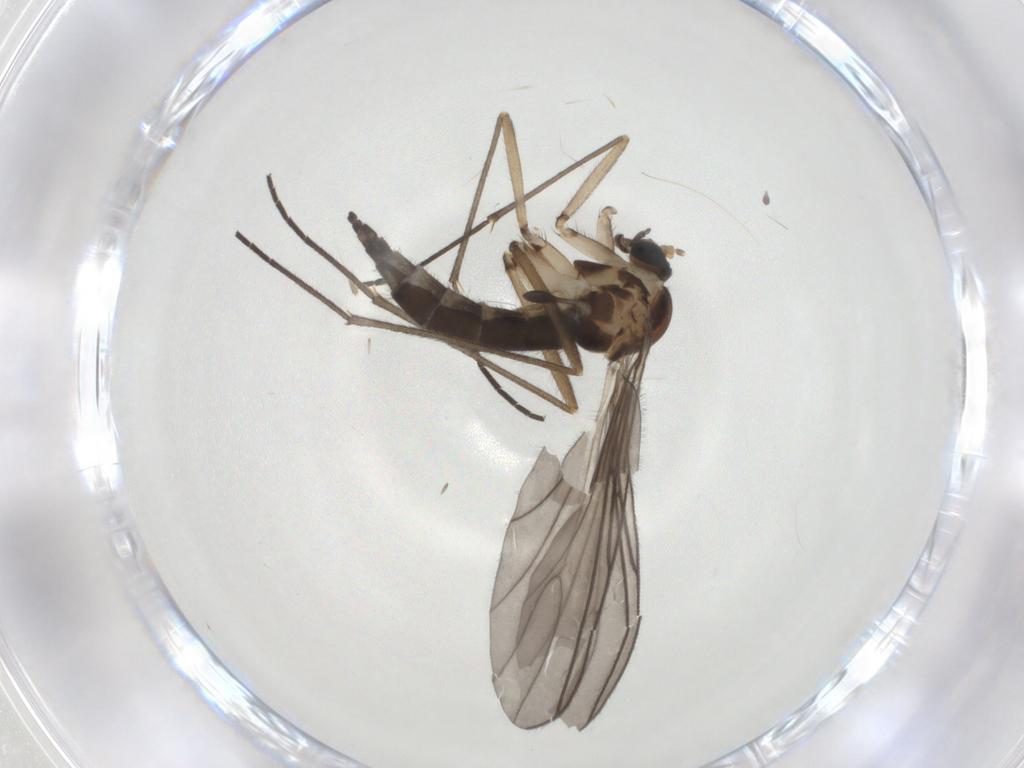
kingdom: Animalia
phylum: Arthropoda
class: Insecta
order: Diptera
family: Sciaridae
